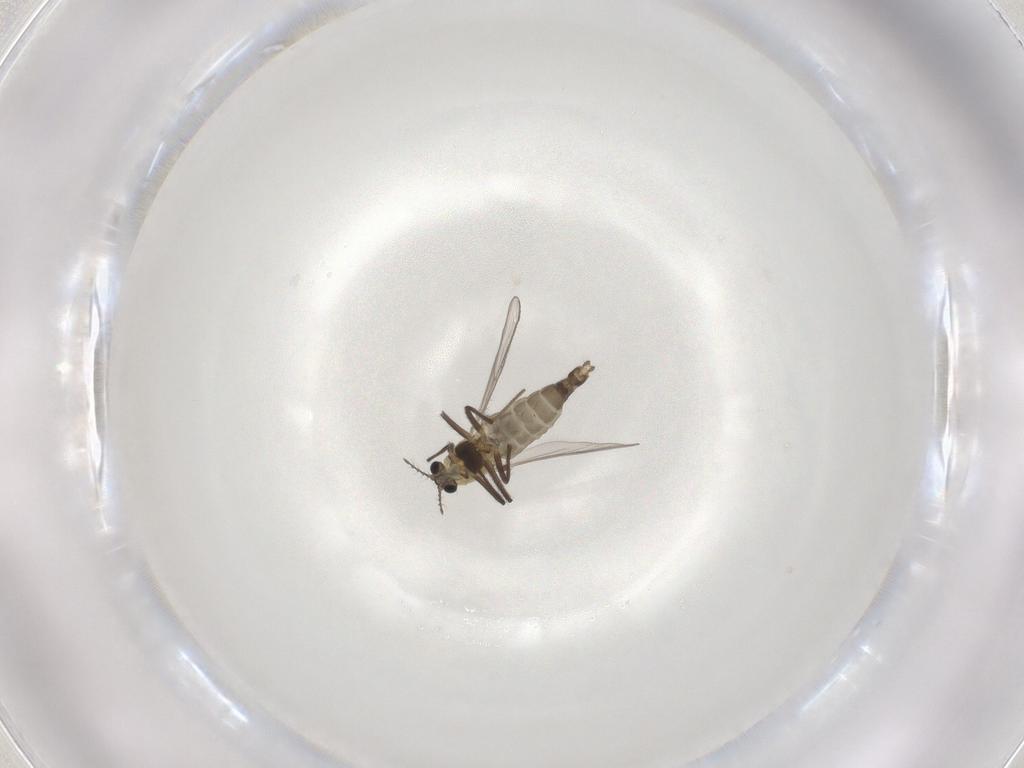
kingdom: Animalia
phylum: Arthropoda
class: Insecta
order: Diptera
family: Chironomidae
